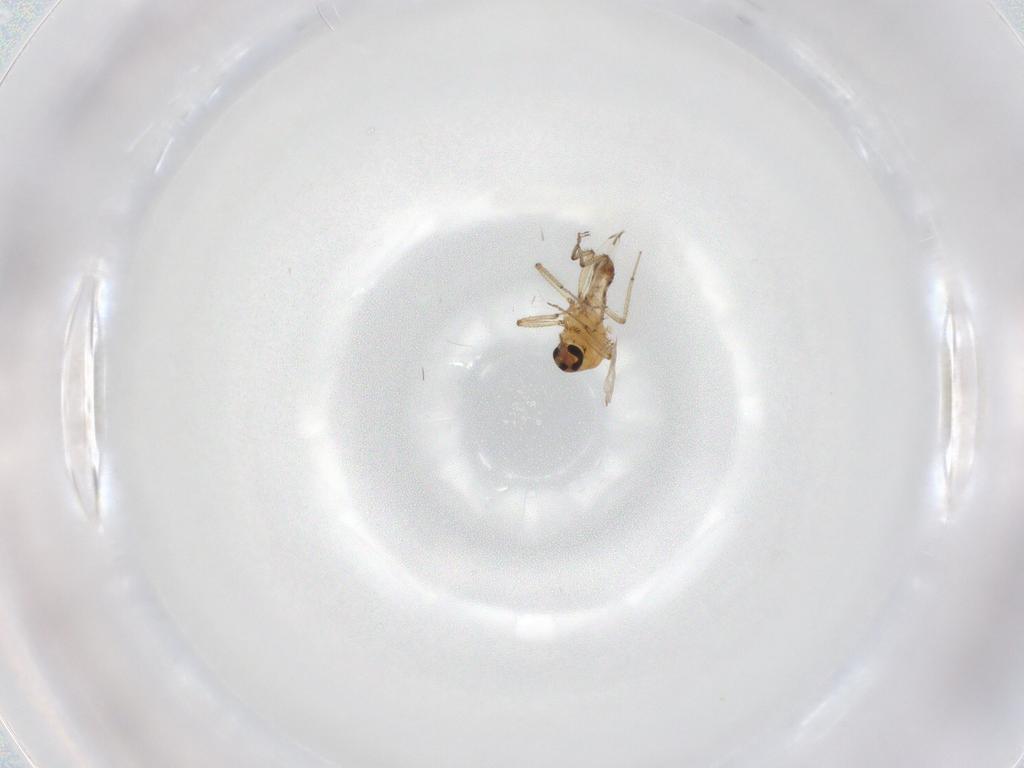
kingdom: Animalia
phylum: Arthropoda
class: Insecta
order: Diptera
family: Ceratopogonidae
